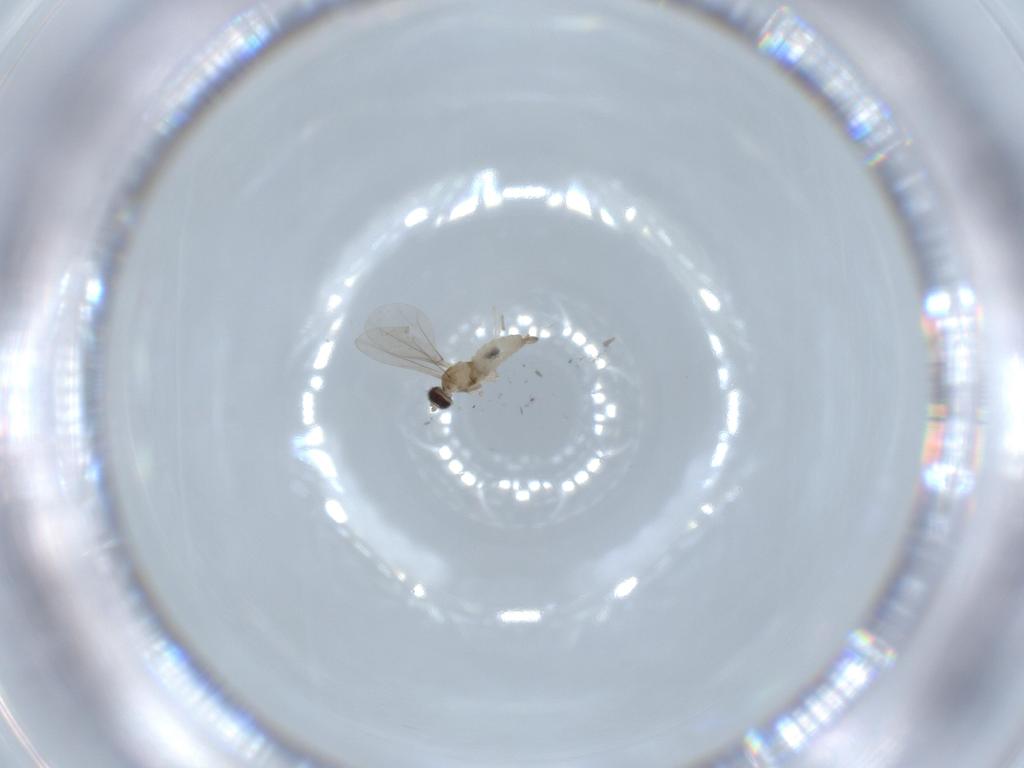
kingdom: Animalia
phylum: Arthropoda
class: Insecta
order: Diptera
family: Cecidomyiidae
